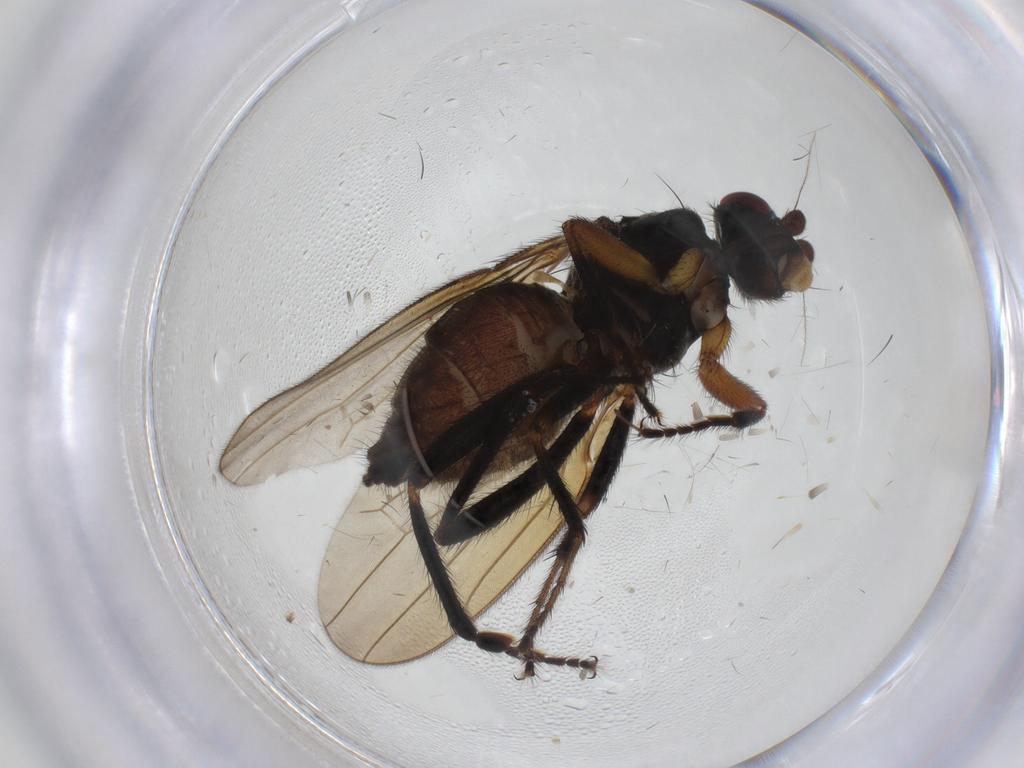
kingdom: Animalia
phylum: Arthropoda
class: Insecta
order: Diptera
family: Sphaeroceridae
